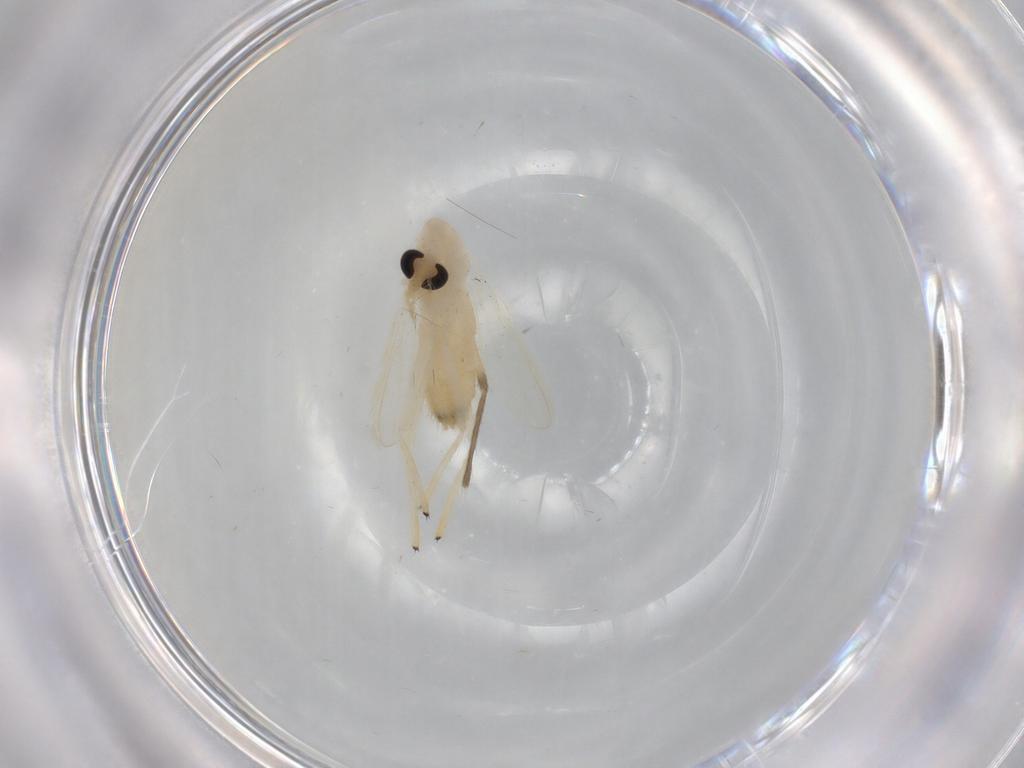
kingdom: Animalia
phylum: Arthropoda
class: Insecta
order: Diptera
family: Chironomidae
